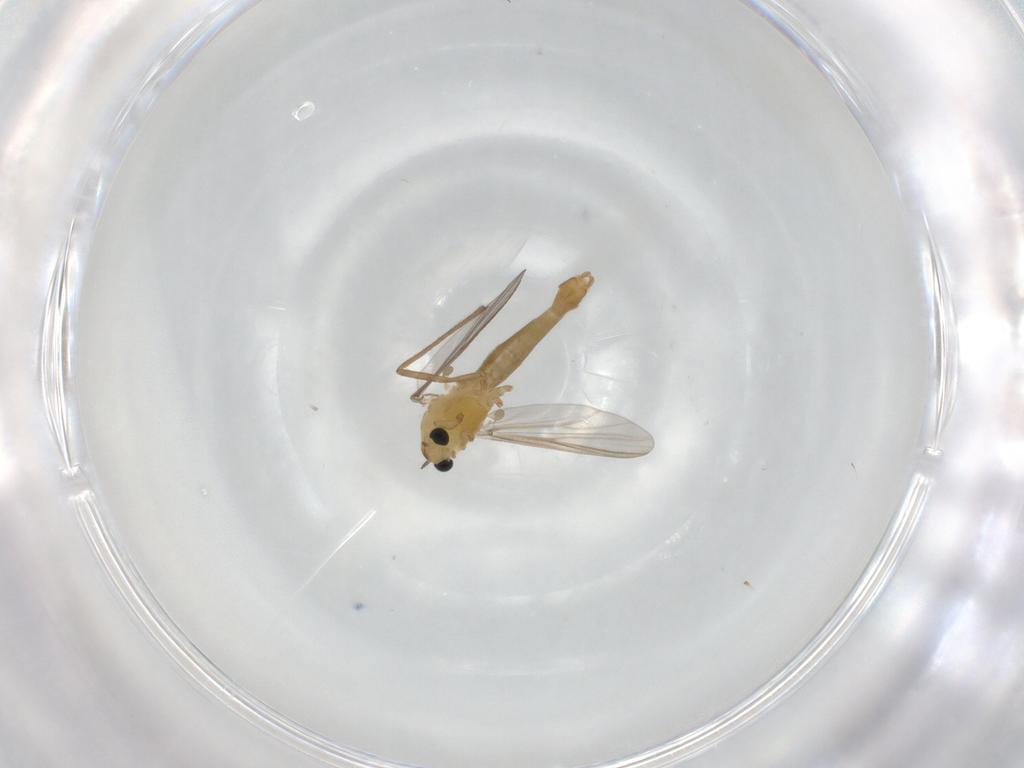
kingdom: Animalia
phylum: Arthropoda
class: Insecta
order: Diptera
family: Chironomidae
